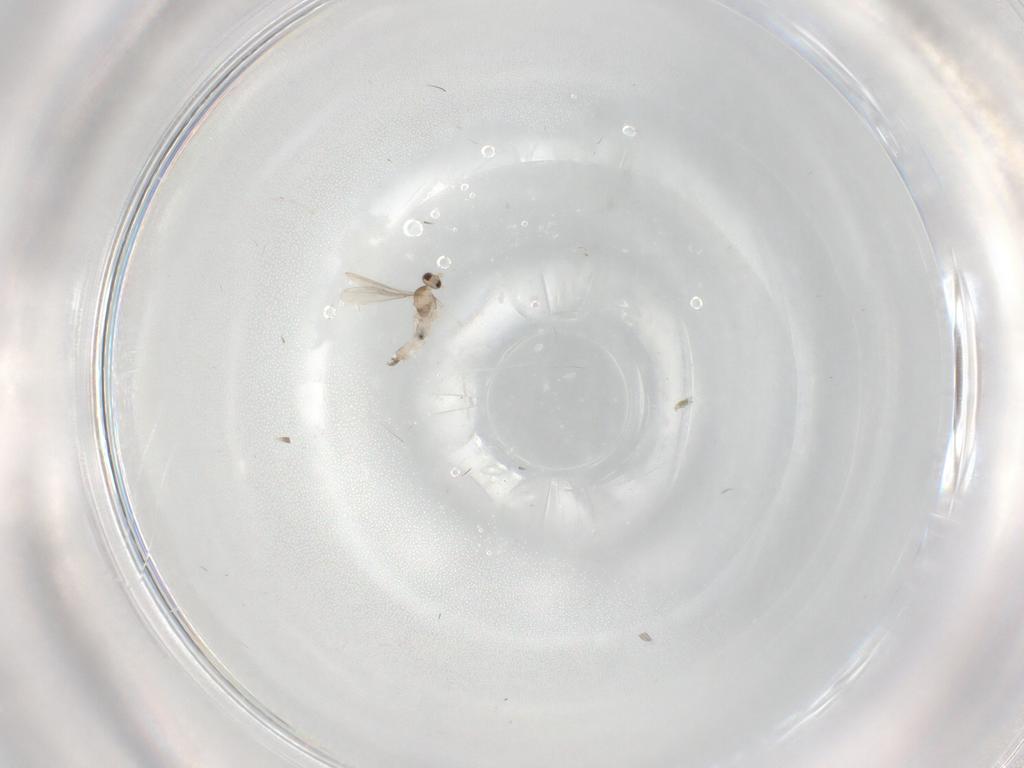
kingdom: Animalia
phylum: Arthropoda
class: Insecta
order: Diptera
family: Cecidomyiidae
